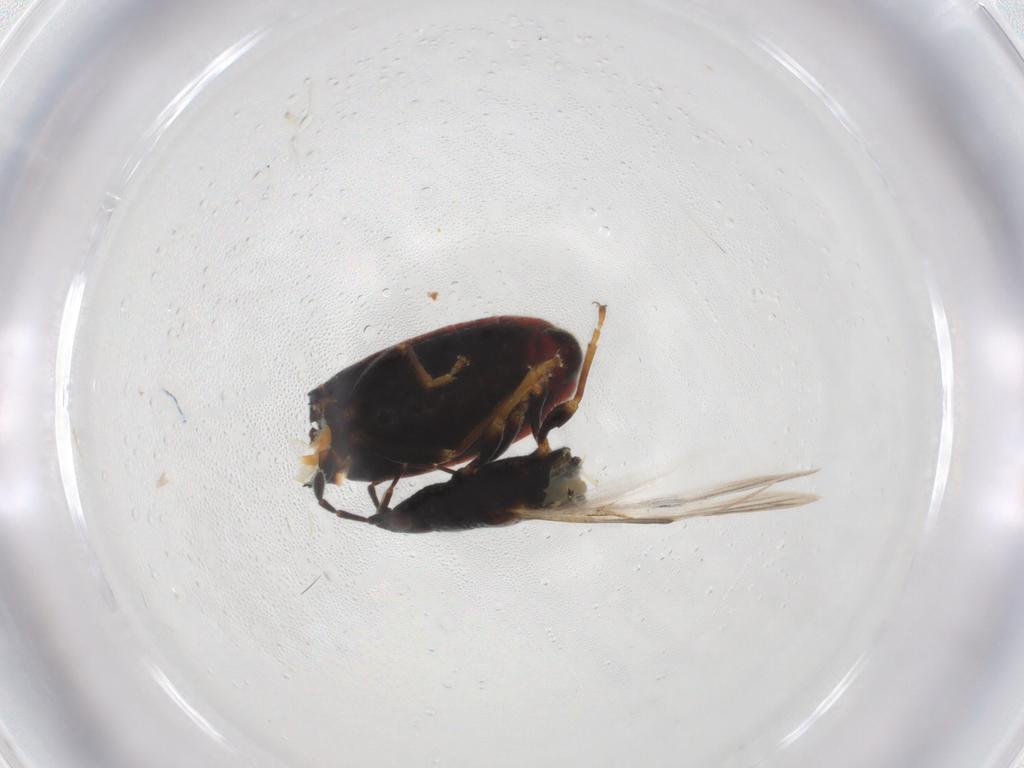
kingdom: Animalia
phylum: Arthropoda
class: Insecta
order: Hemiptera
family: Blissidae
